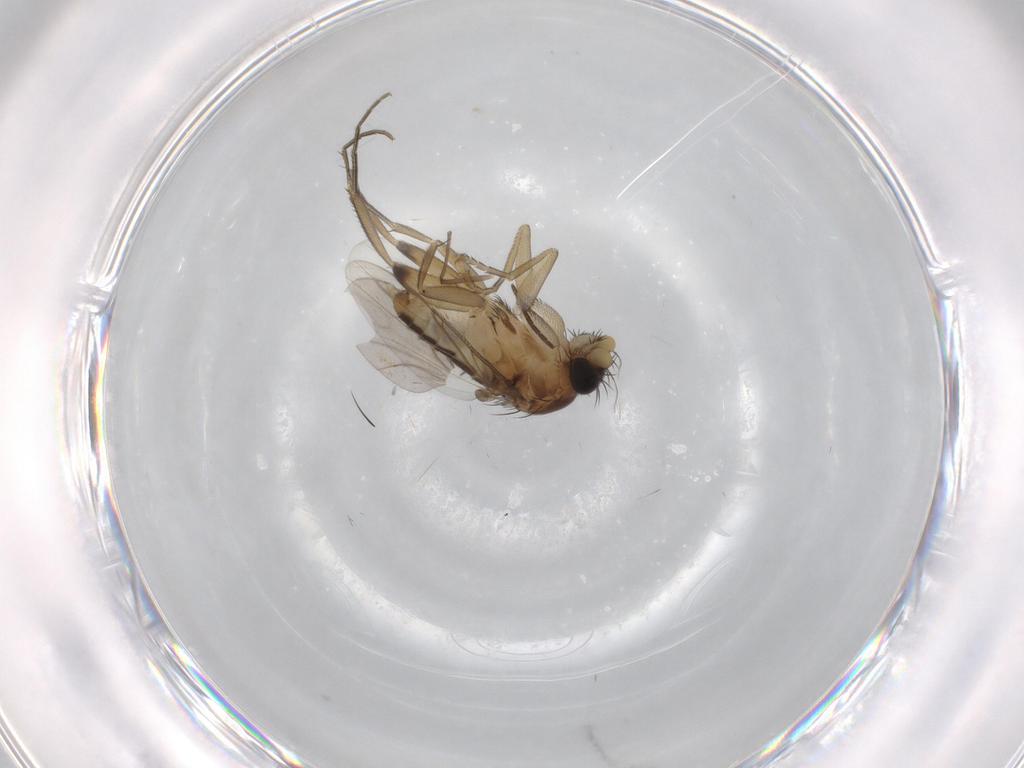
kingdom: Animalia
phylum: Arthropoda
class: Insecta
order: Diptera
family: Phoridae
